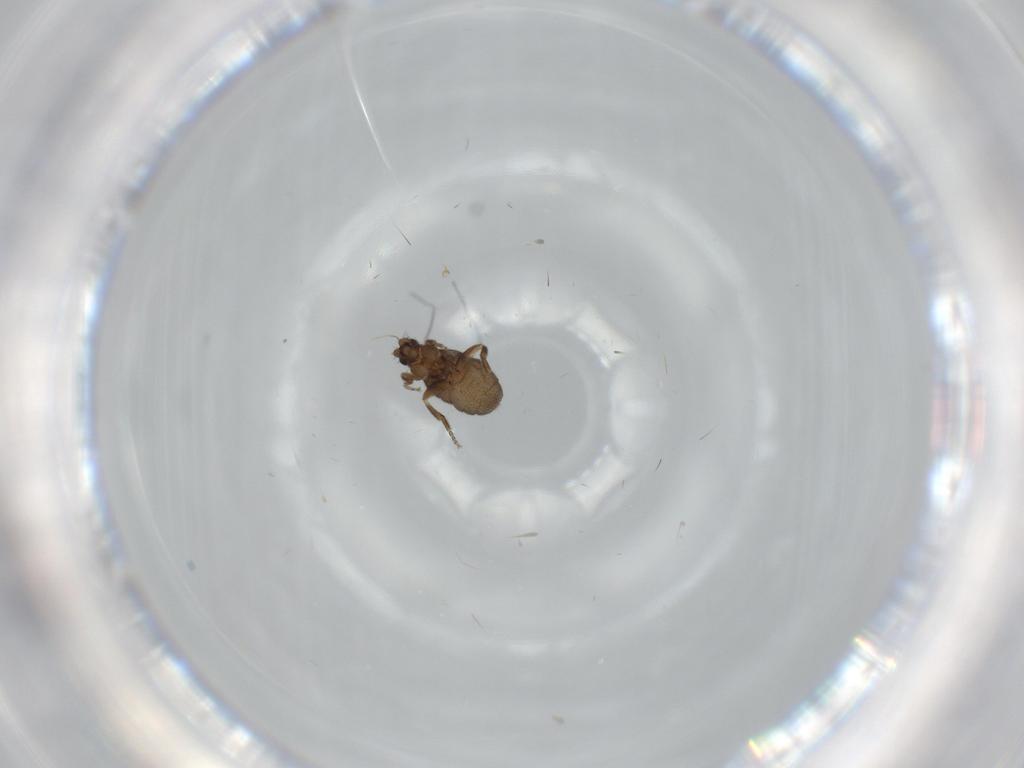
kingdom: Animalia
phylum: Arthropoda
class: Insecta
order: Diptera
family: Phoridae
